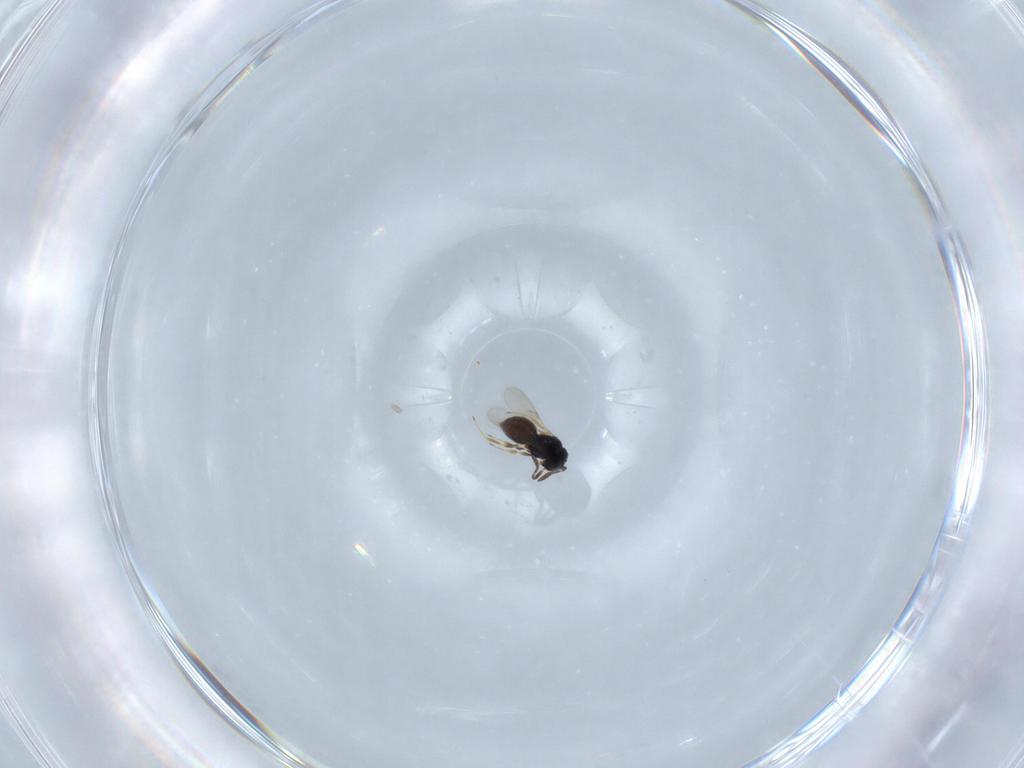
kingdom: Animalia
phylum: Arthropoda
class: Insecta
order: Hymenoptera
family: Scelionidae
